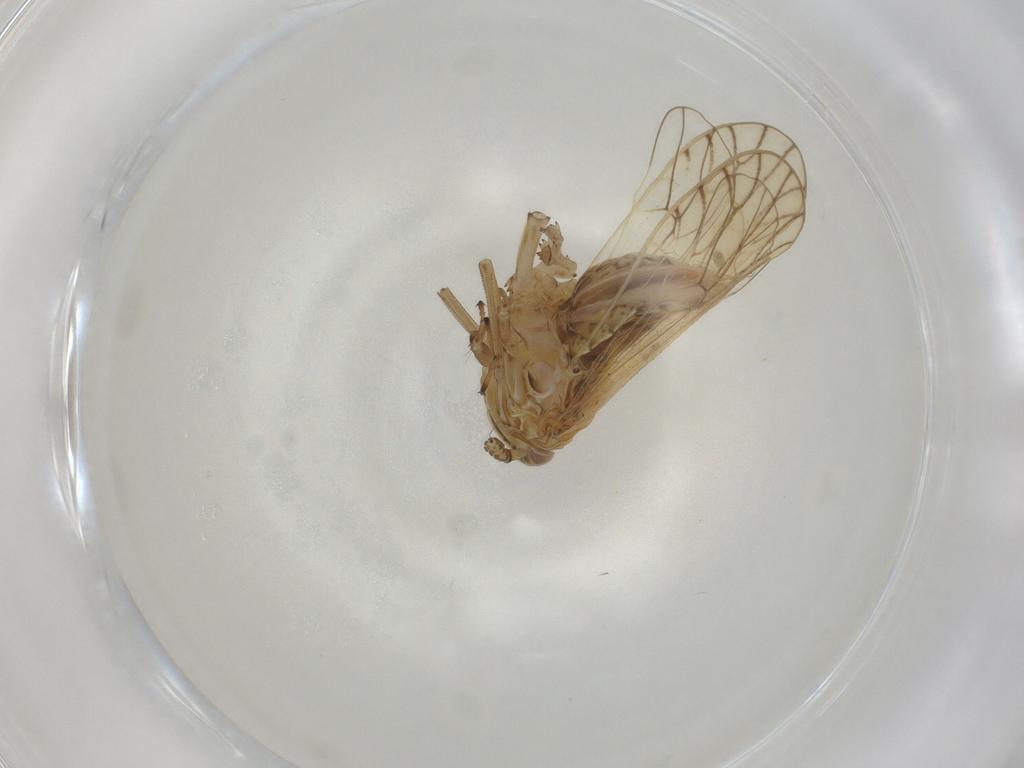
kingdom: Animalia
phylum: Arthropoda
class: Insecta
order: Hemiptera
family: Delphacidae
